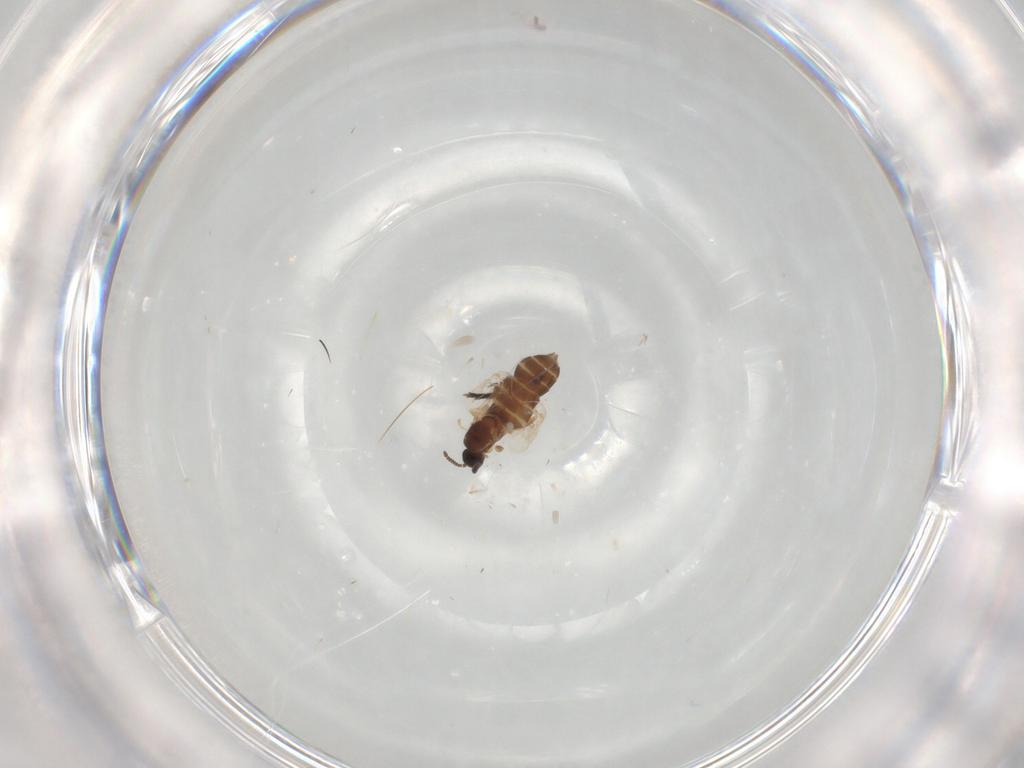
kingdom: Animalia
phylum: Arthropoda
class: Insecta
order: Diptera
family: Scatopsidae
